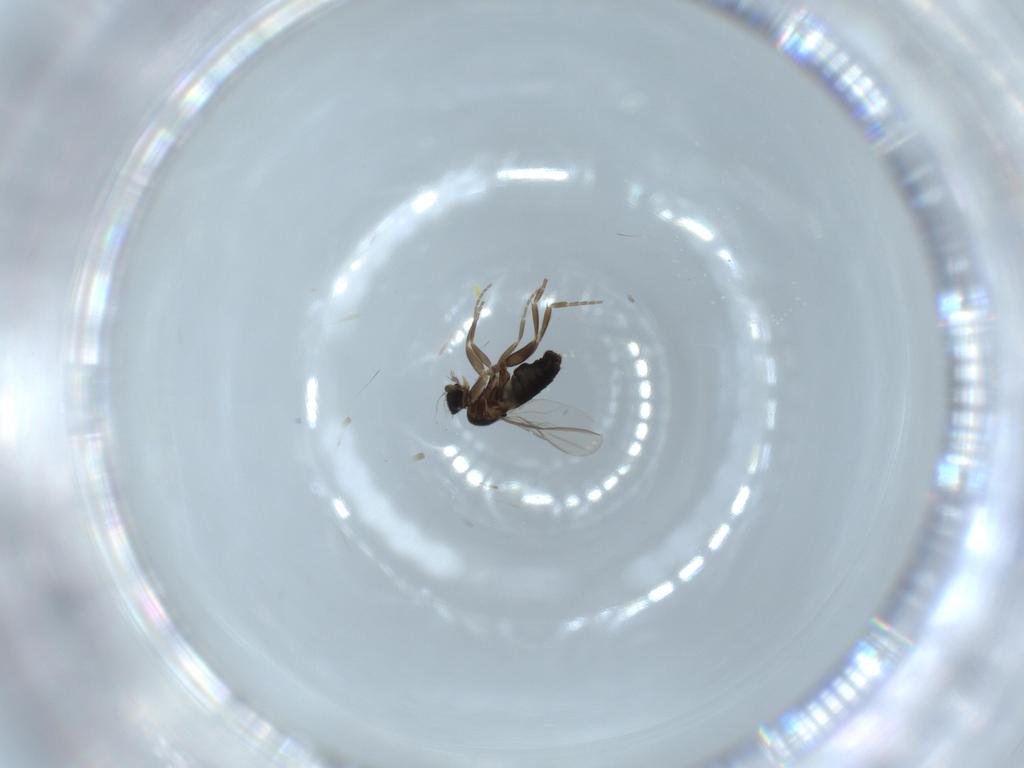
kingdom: Animalia
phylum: Arthropoda
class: Insecta
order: Diptera
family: Phoridae
